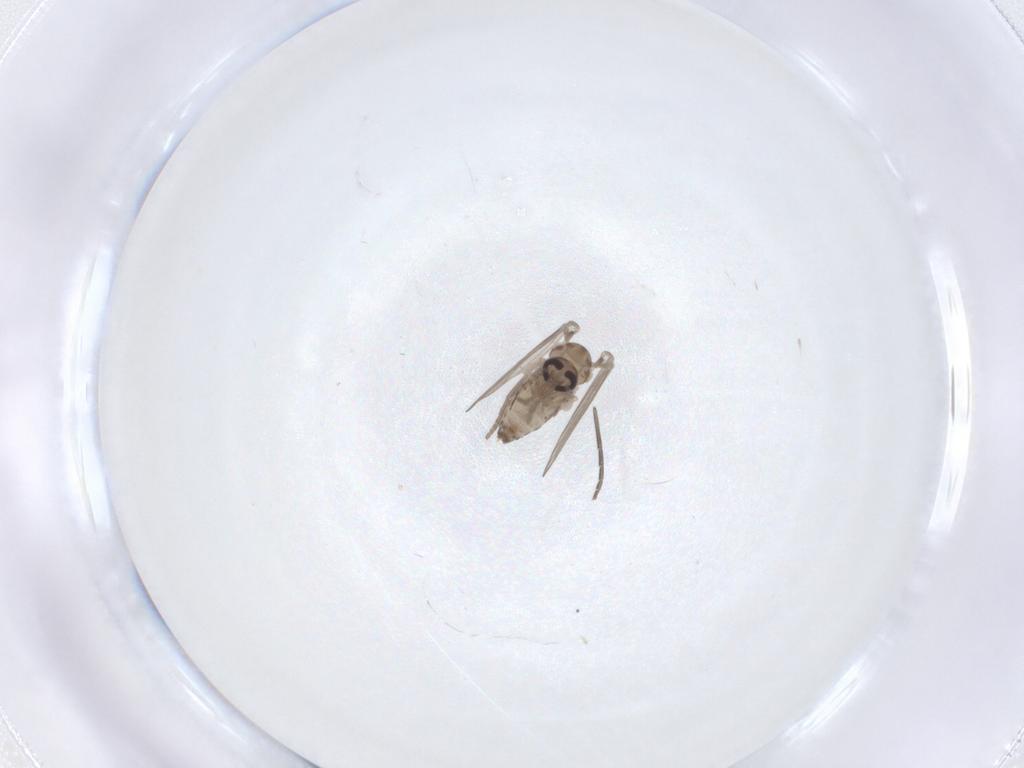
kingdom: Animalia
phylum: Arthropoda
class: Insecta
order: Diptera
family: Psychodidae
